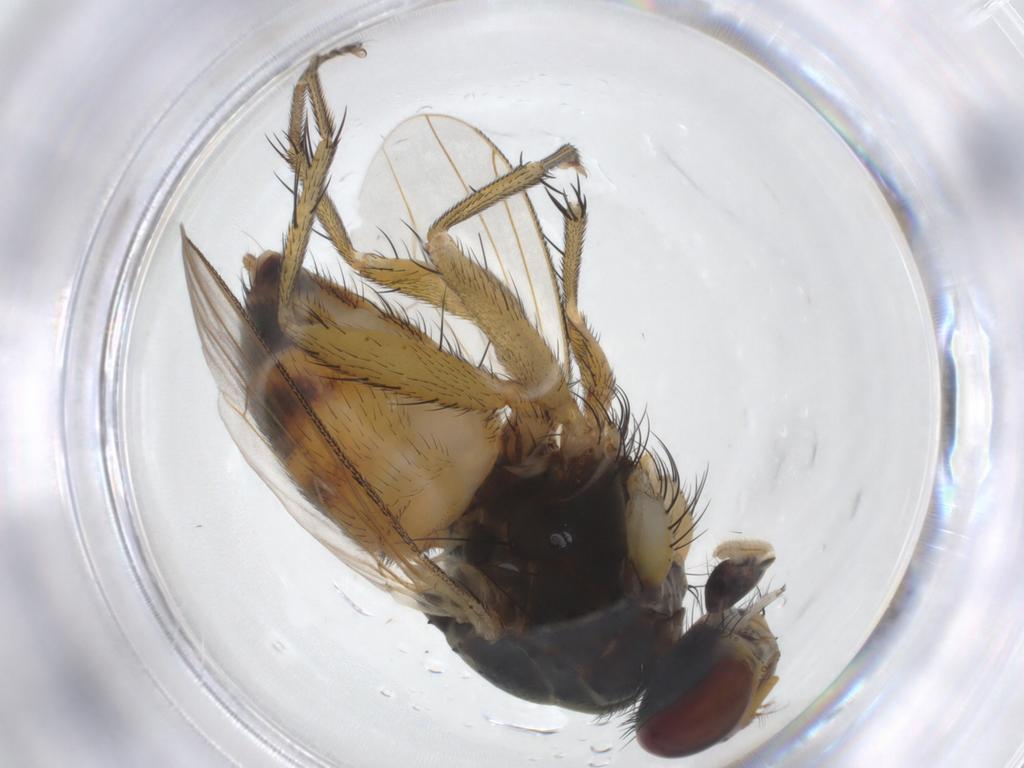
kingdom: Animalia
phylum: Arthropoda
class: Insecta
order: Diptera
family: Muscidae
